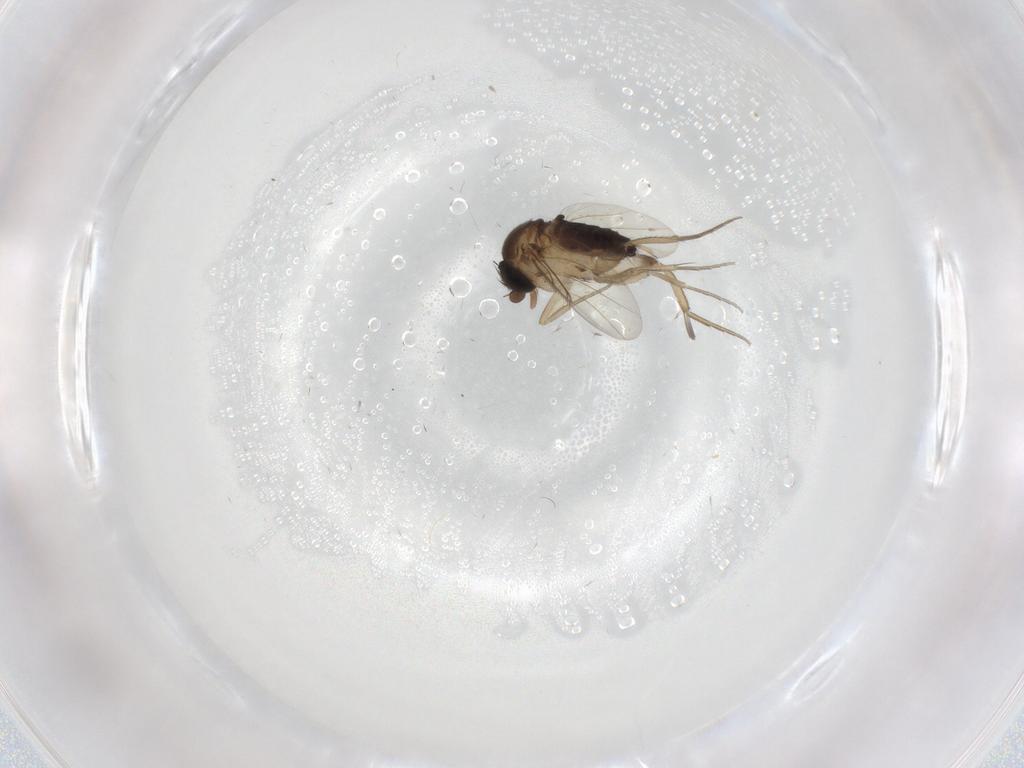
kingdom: Animalia
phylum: Arthropoda
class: Insecta
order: Diptera
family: Phoridae
